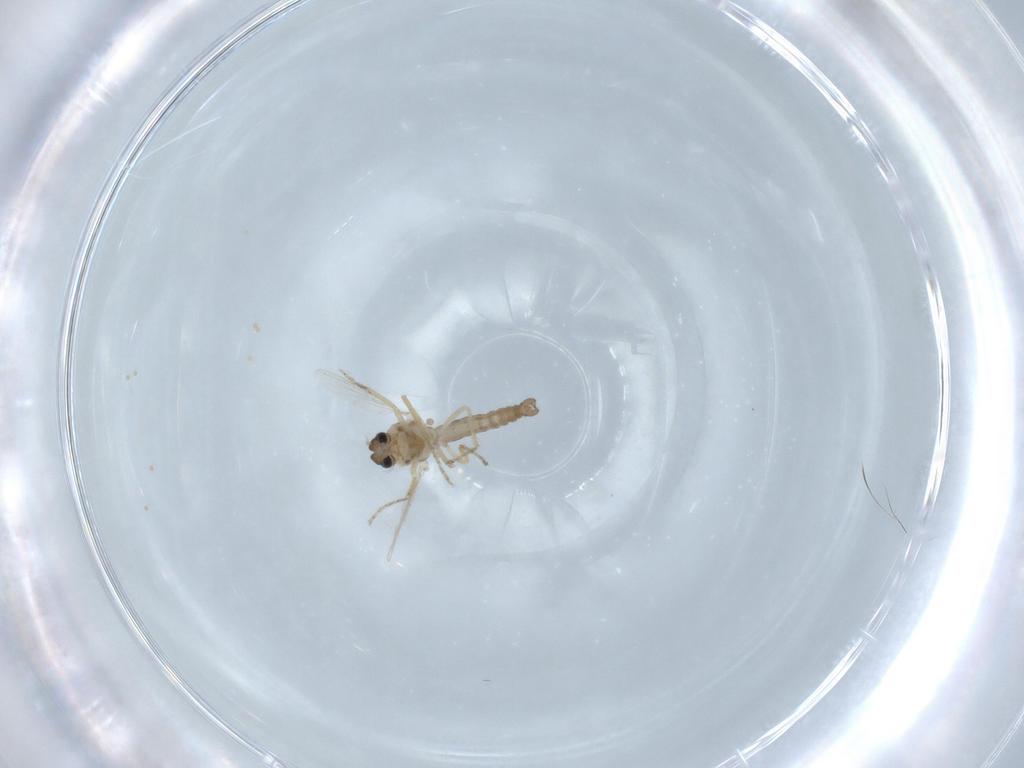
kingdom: Animalia
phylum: Arthropoda
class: Insecta
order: Diptera
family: Ceratopogonidae
